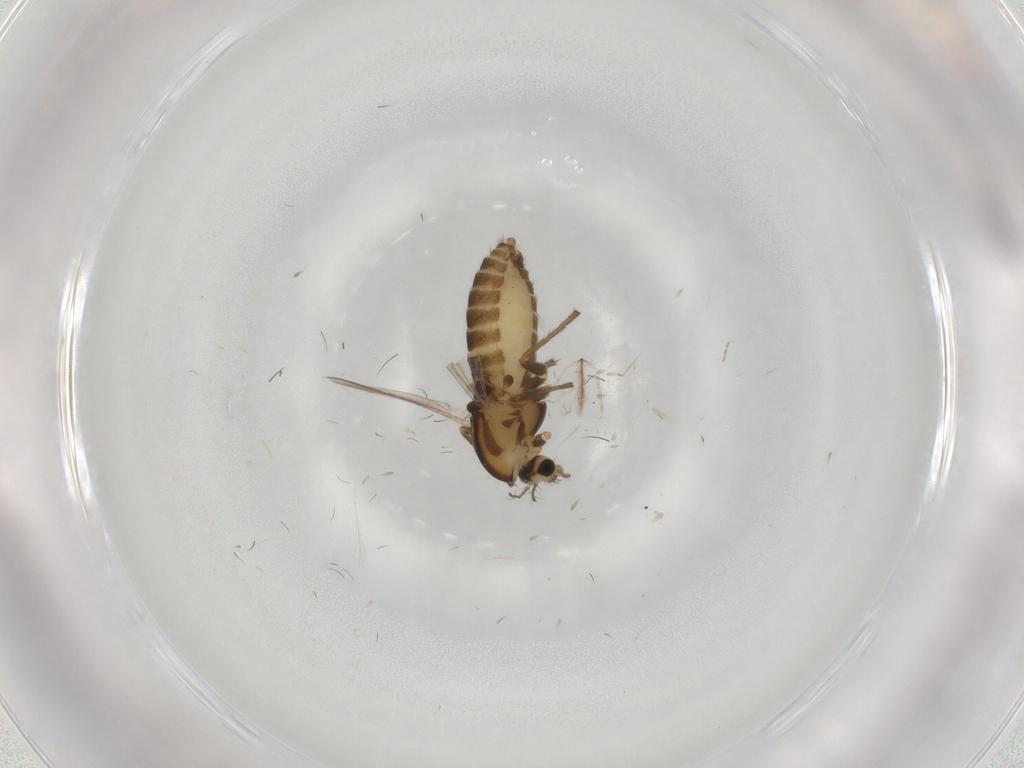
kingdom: Animalia
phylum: Arthropoda
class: Insecta
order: Diptera
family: Chironomidae
